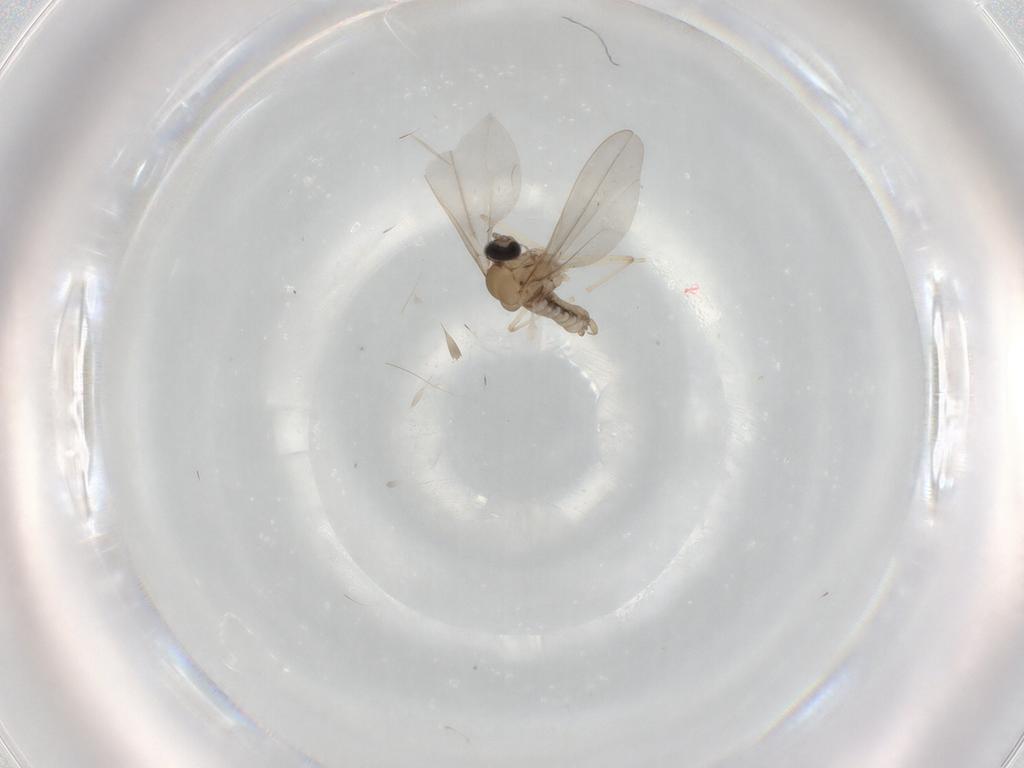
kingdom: Animalia
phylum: Arthropoda
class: Insecta
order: Diptera
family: Cecidomyiidae
